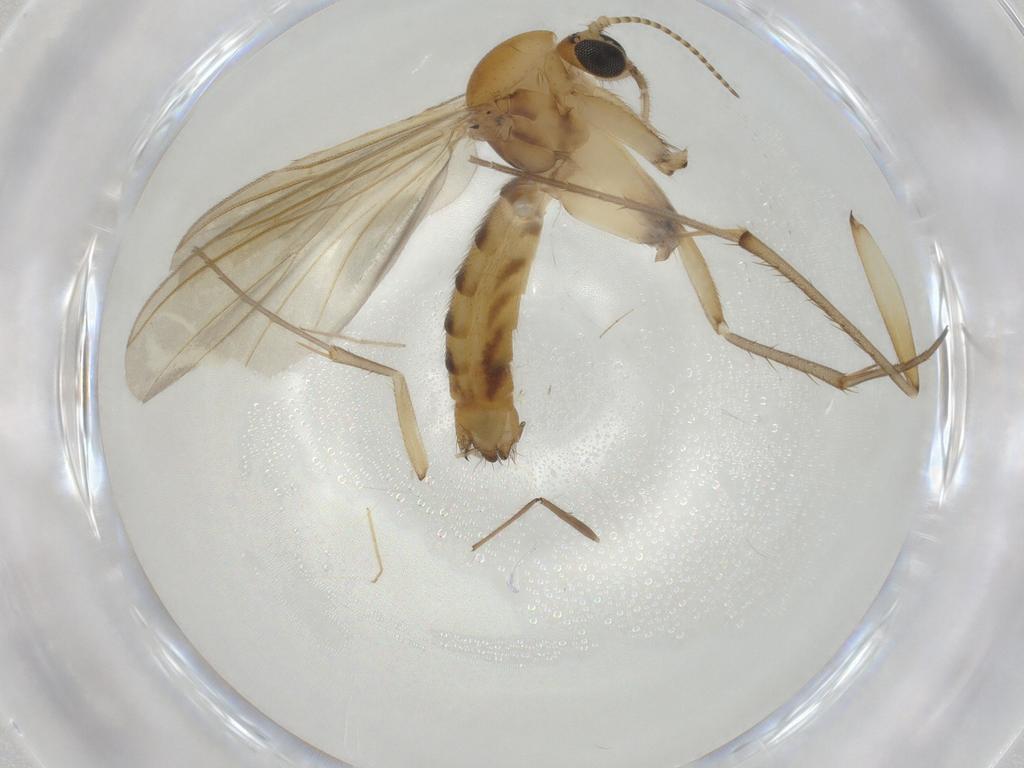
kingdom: Animalia
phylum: Arthropoda
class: Insecta
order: Diptera
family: Mycetophilidae
